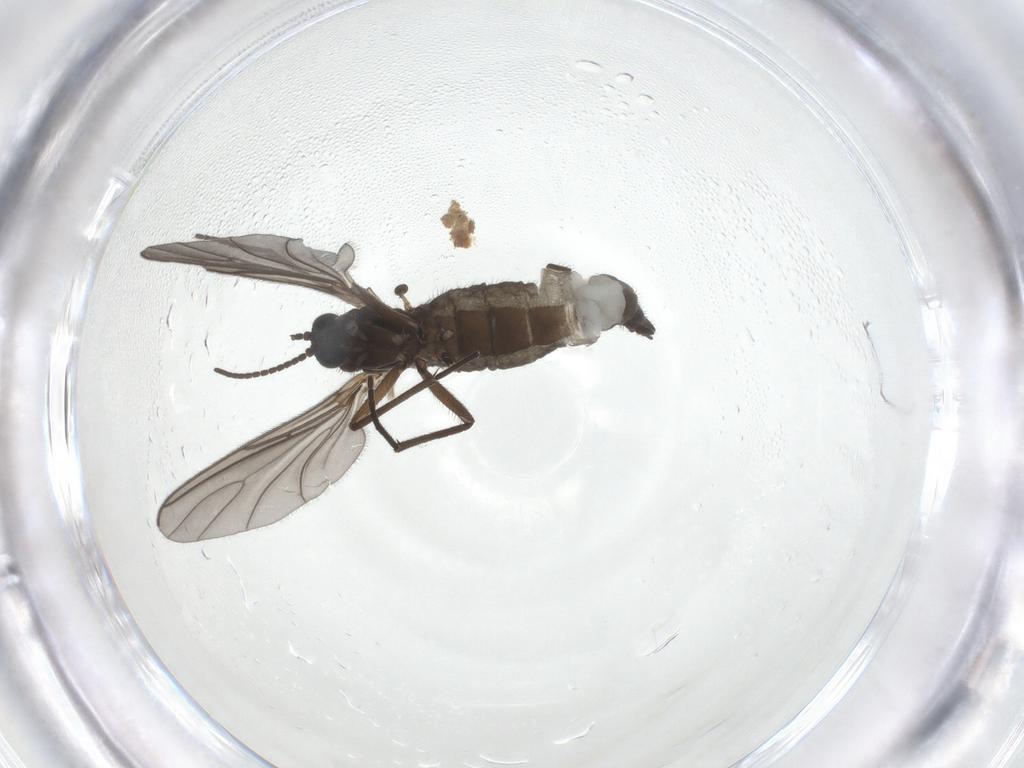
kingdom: Animalia
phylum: Arthropoda
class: Insecta
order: Diptera
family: Sciaridae
